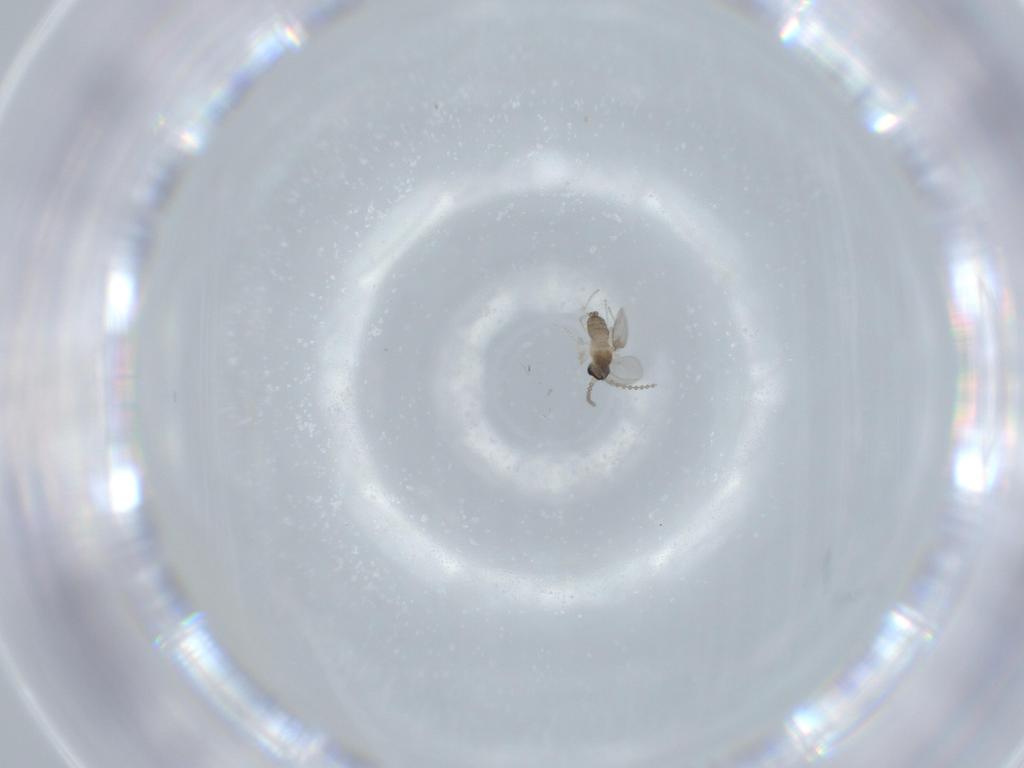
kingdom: Animalia
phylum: Arthropoda
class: Insecta
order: Diptera
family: Cecidomyiidae
